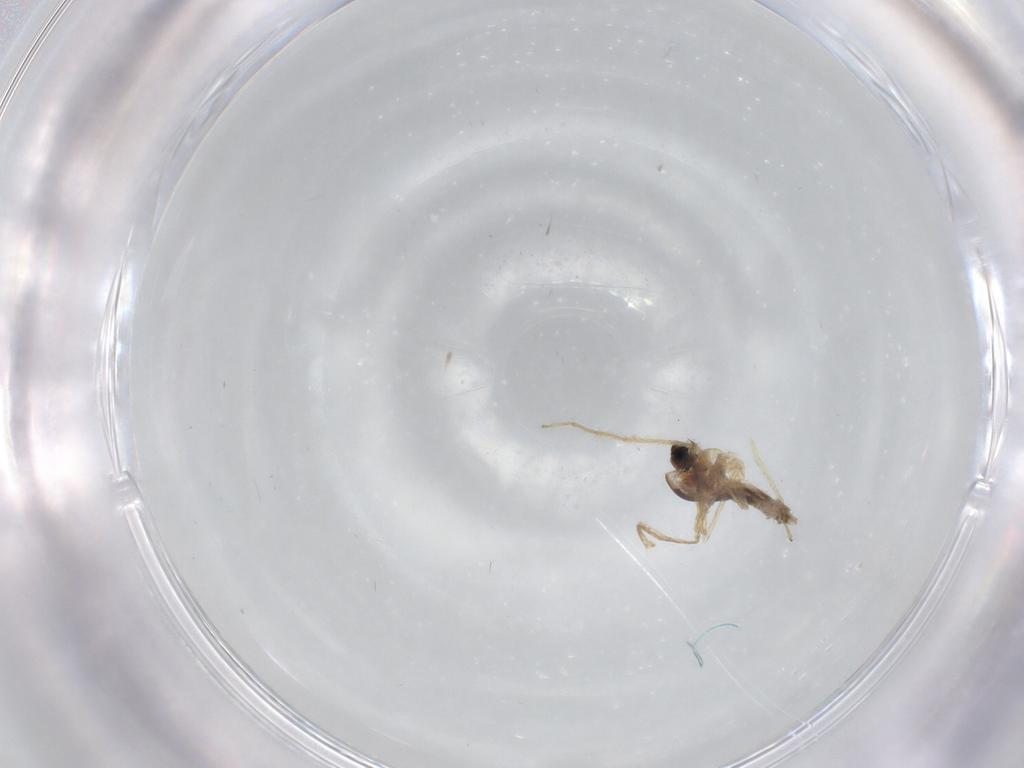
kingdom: Animalia
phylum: Arthropoda
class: Insecta
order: Diptera
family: Chironomidae
